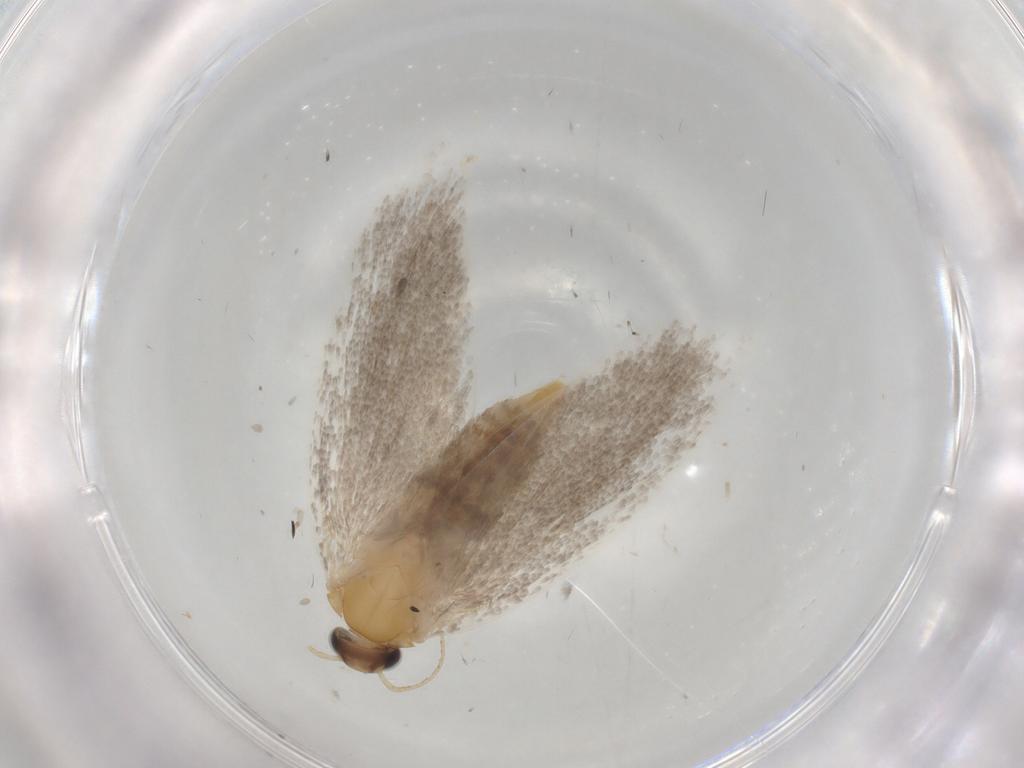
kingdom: Animalia
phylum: Arthropoda
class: Insecta
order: Lepidoptera
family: Oecophoridae
